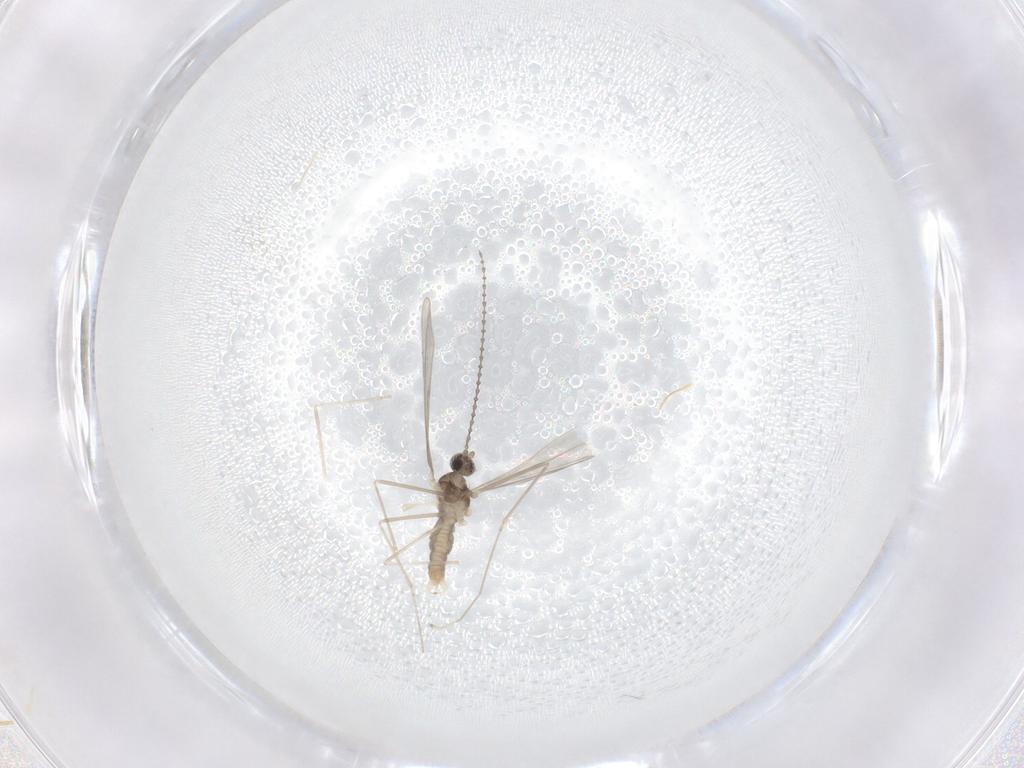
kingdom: Animalia
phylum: Arthropoda
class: Insecta
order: Diptera
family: Cecidomyiidae
